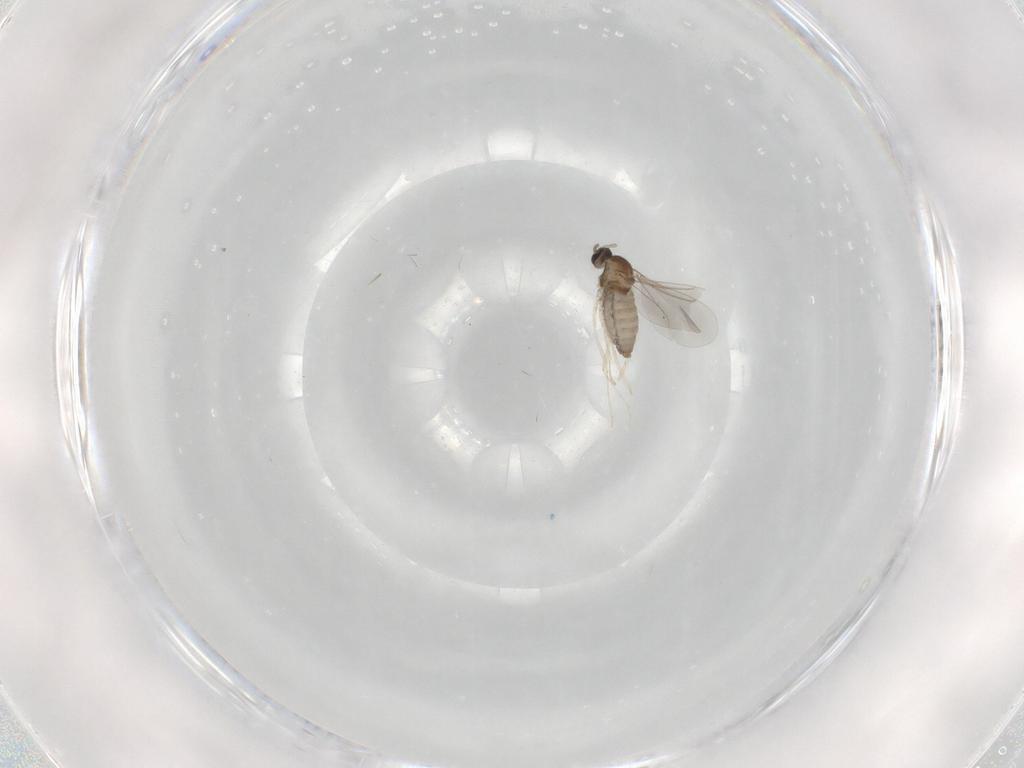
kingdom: Animalia
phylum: Arthropoda
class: Insecta
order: Diptera
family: Cecidomyiidae
